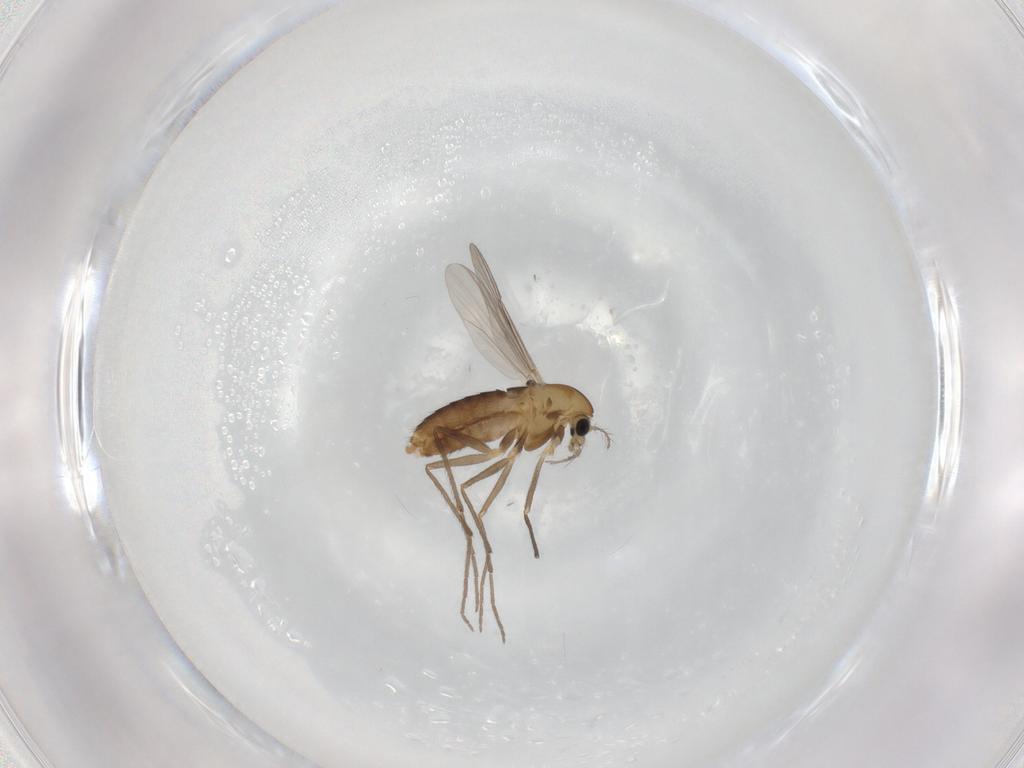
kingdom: Animalia
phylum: Arthropoda
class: Insecta
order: Diptera
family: Chironomidae
